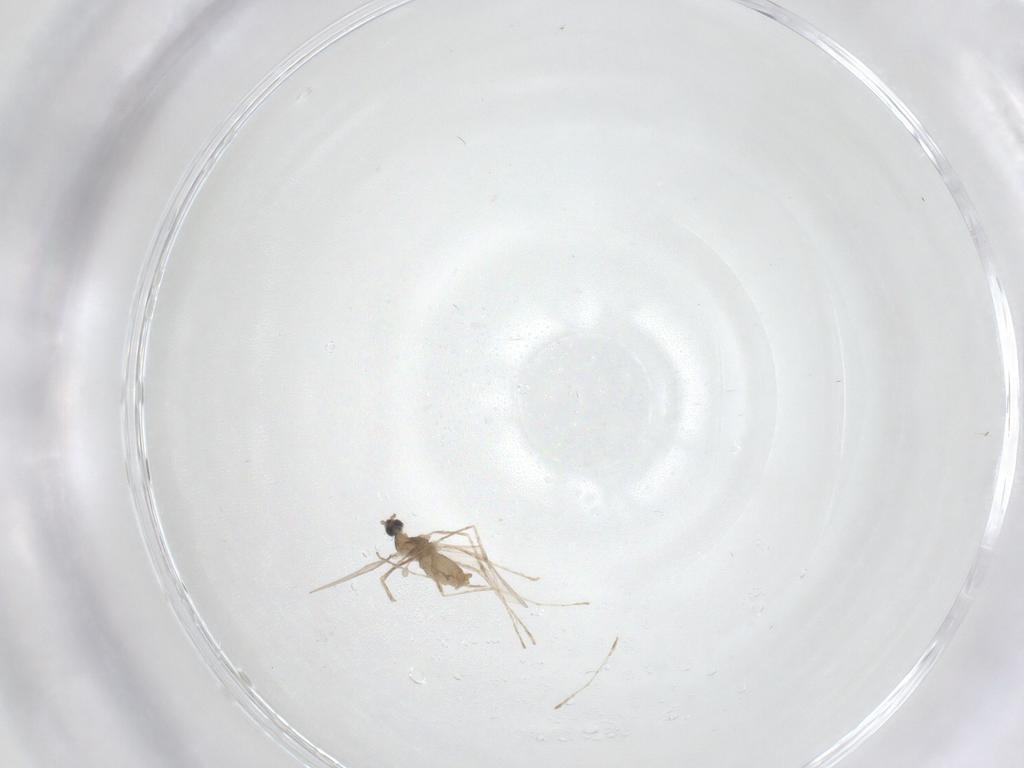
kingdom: Animalia
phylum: Arthropoda
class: Insecta
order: Diptera
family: Cecidomyiidae
